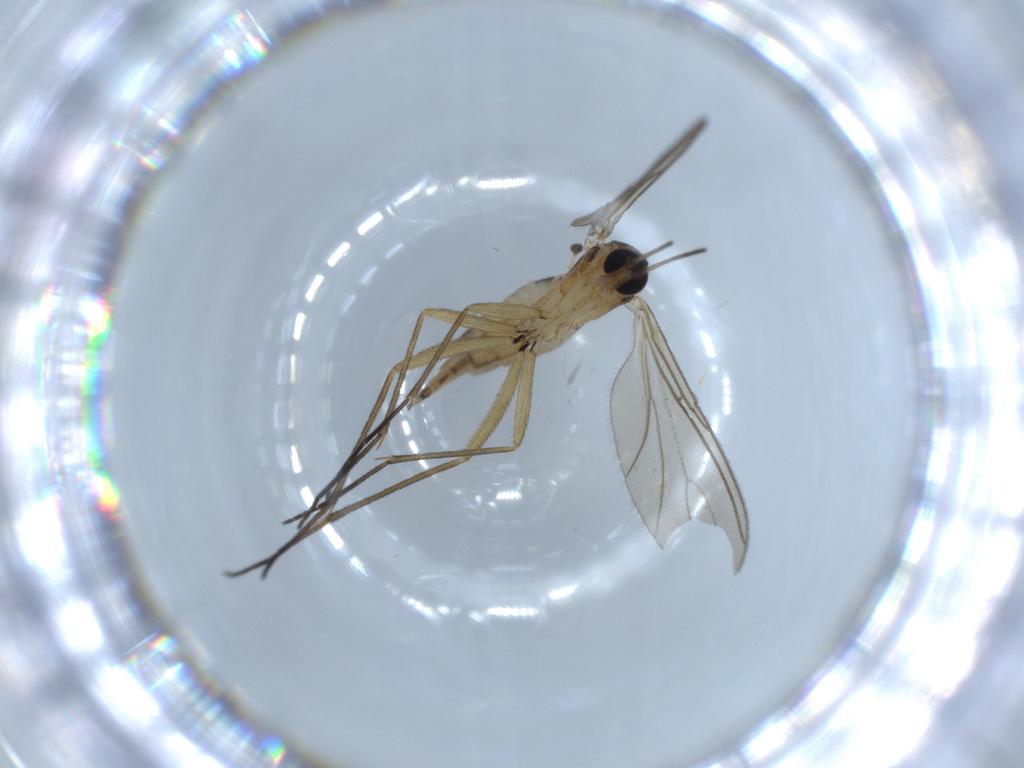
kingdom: Animalia
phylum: Arthropoda
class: Insecta
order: Diptera
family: Sciaridae
